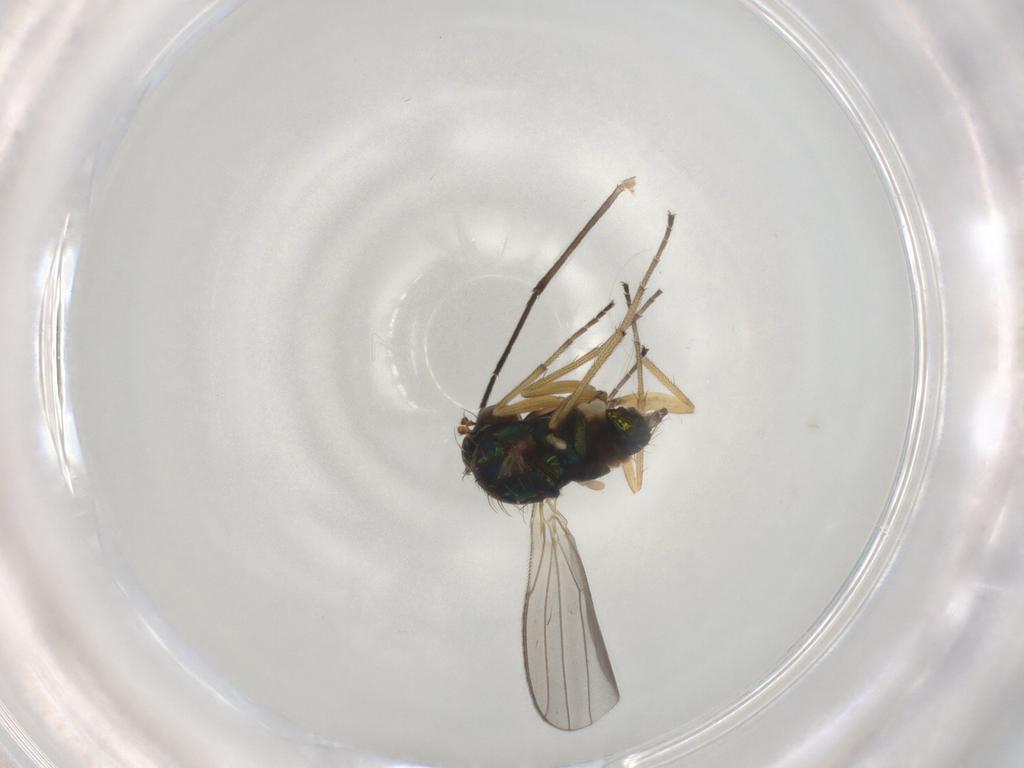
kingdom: Animalia
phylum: Arthropoda
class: Insecta
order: Diptera
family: Dolichopodidae
